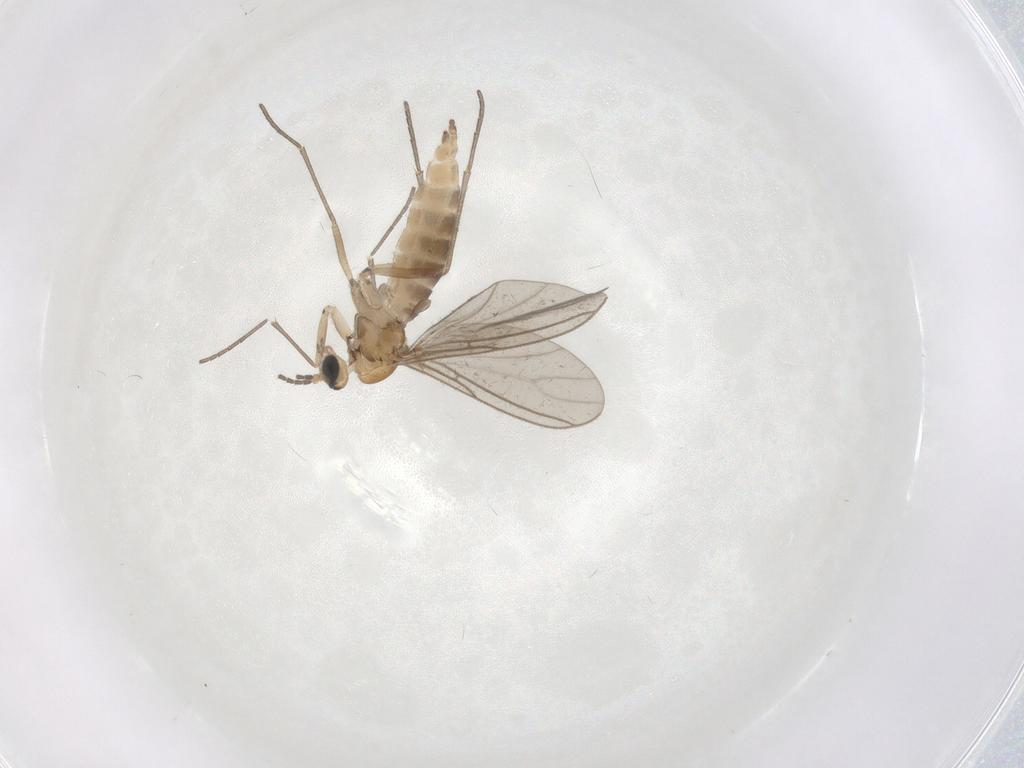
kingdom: Animalia
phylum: Arthropoda
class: Insecta
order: Diptera
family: Sciaridae
